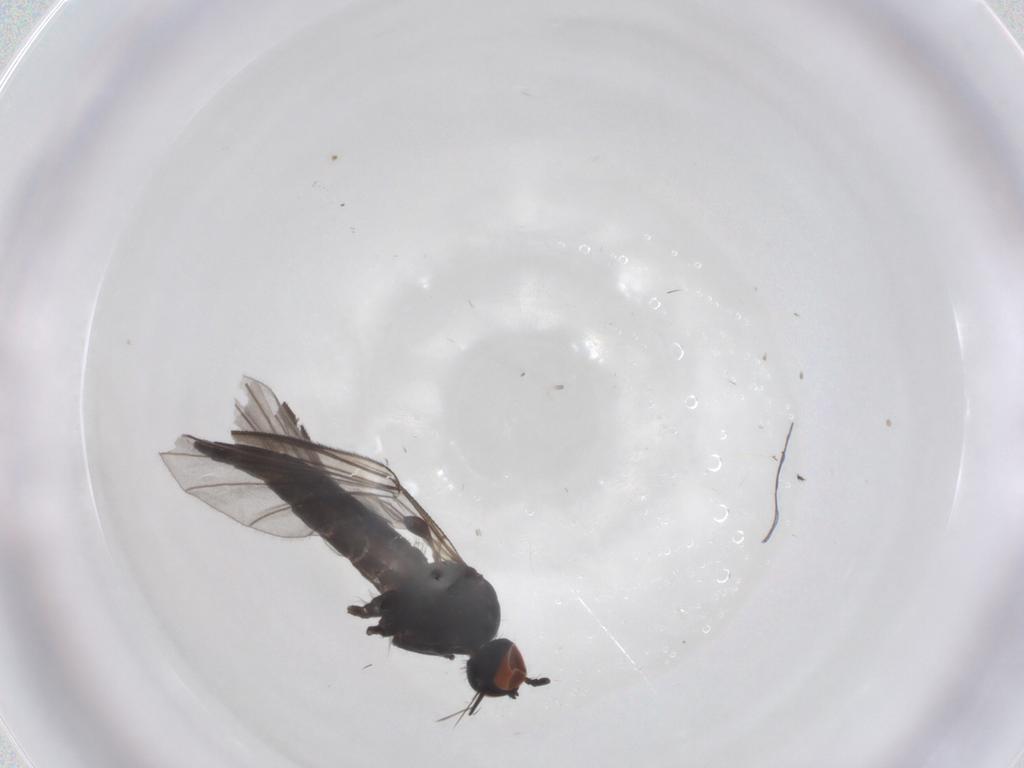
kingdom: Animalia
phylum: Arthropoda
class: Insecta
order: Diptera
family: Empididae
